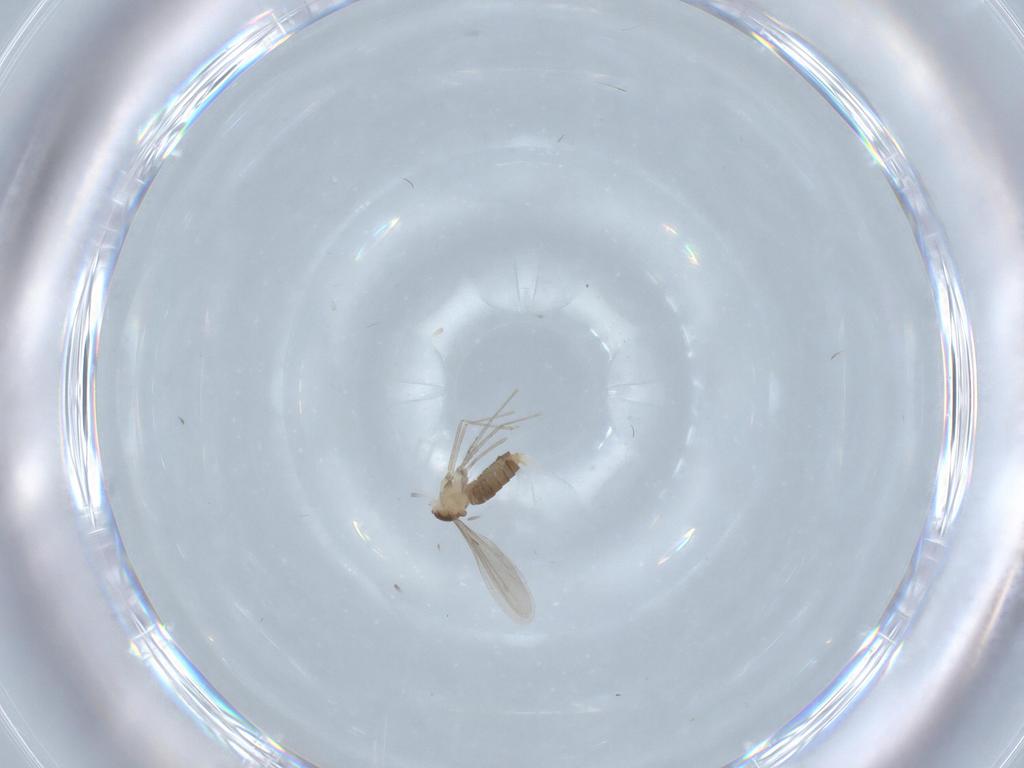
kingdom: Animalia
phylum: Arthropoda
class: Insecta
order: Diptera
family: Cecidomyiidae
